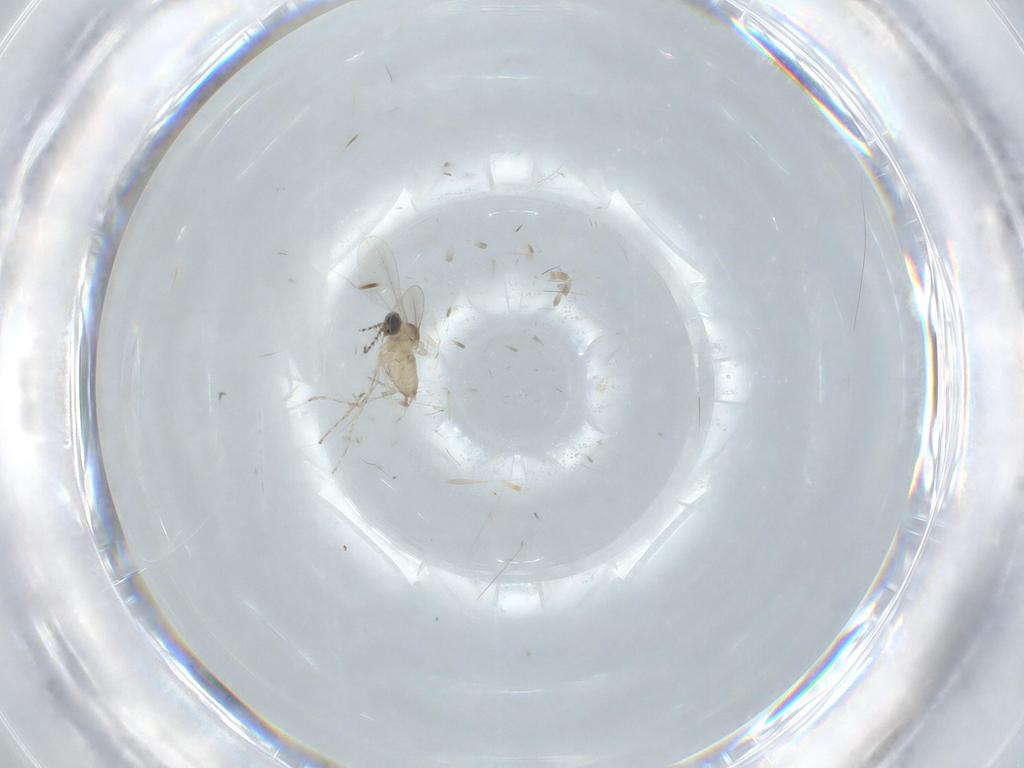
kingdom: Animalia
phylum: Arthropoda
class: Insecta
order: Diptera
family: Cecidomyiidae
